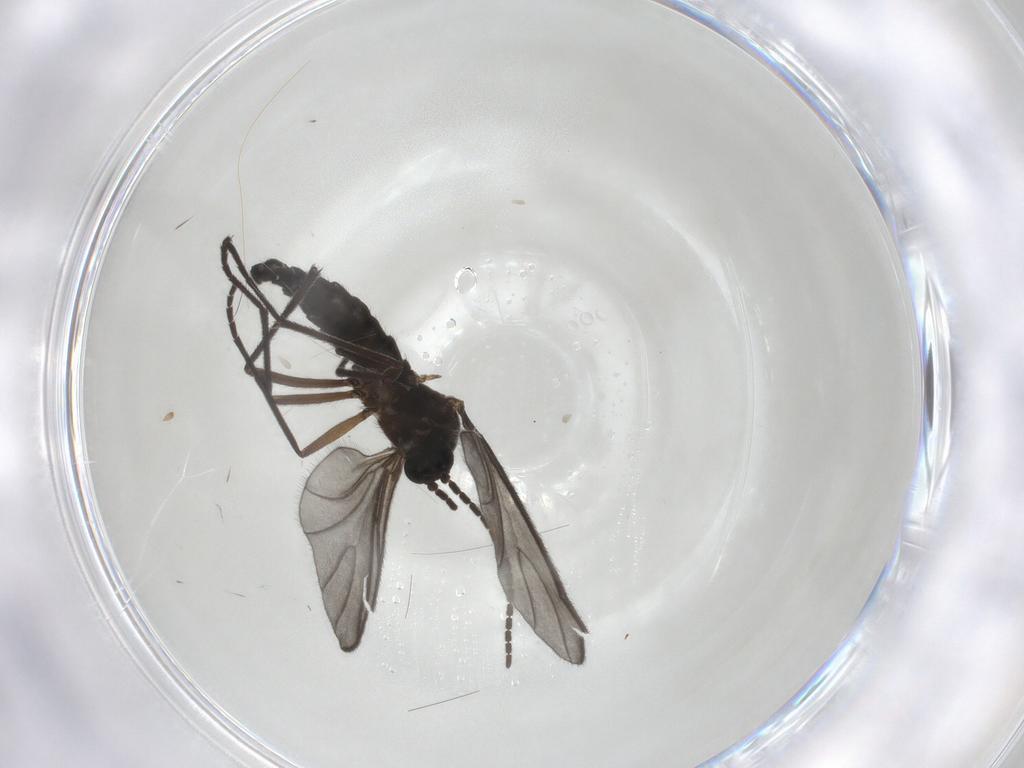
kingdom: Animalia
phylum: Arthropoda
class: Insecta
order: Diptera
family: Sciaridae
